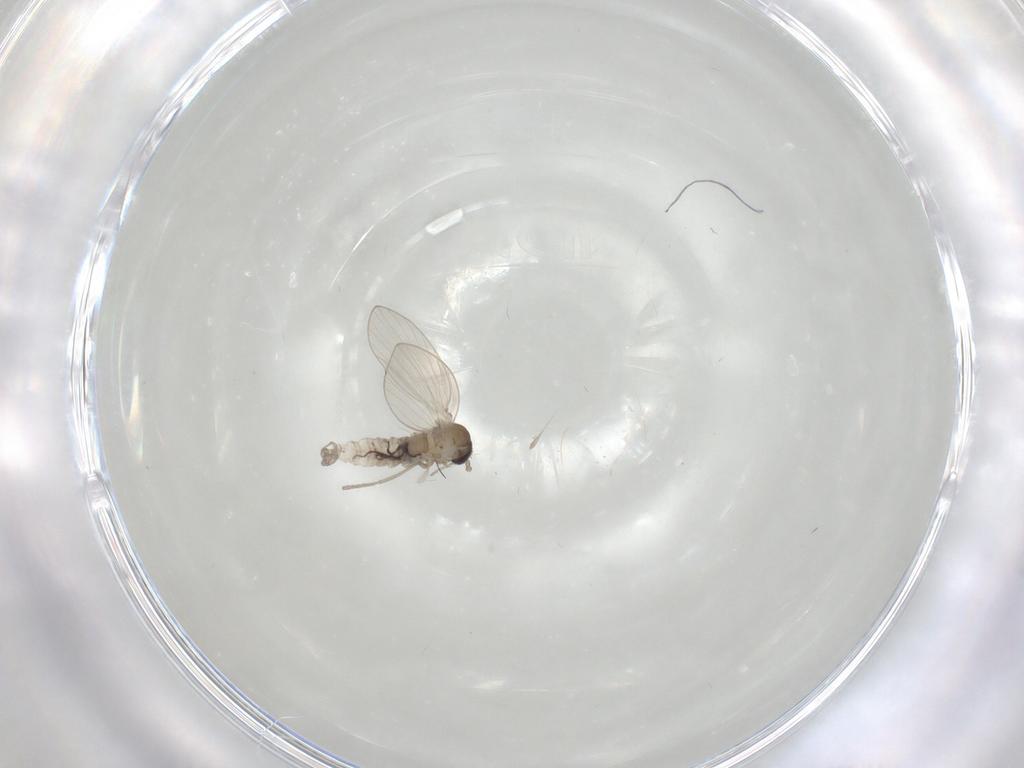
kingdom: Animalia
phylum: Arthropoda
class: Insecta
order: Diptera
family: Psychodidae
